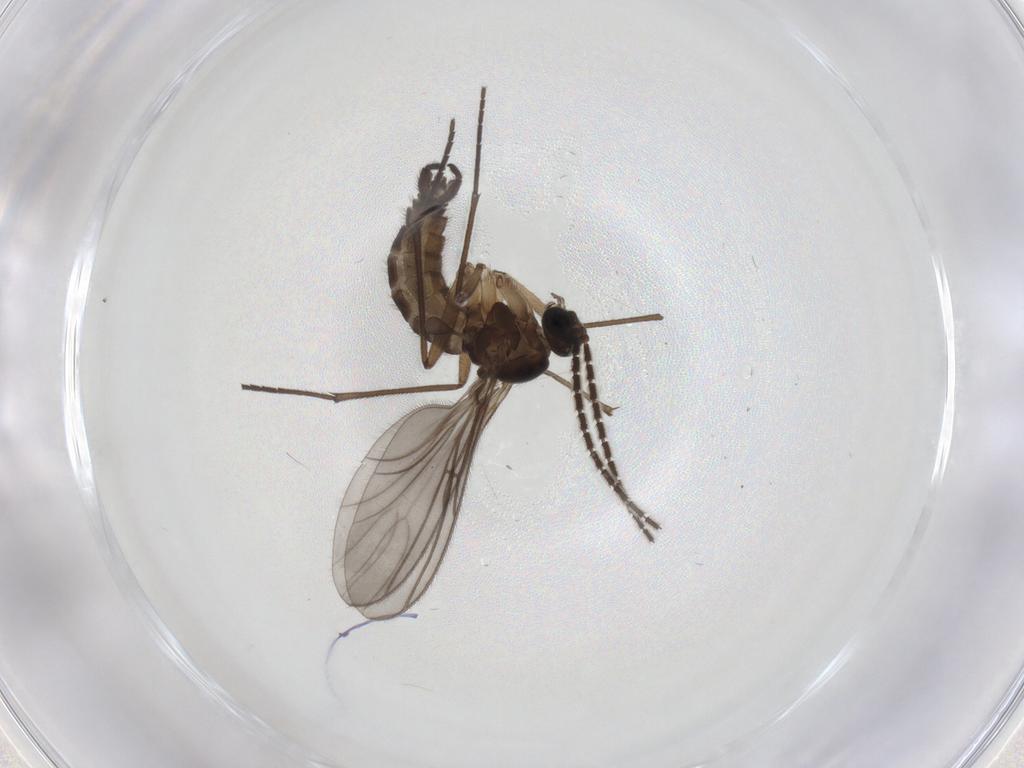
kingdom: Animalia
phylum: Arthropoda
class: Insecta
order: Diptera
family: Sciaridae
